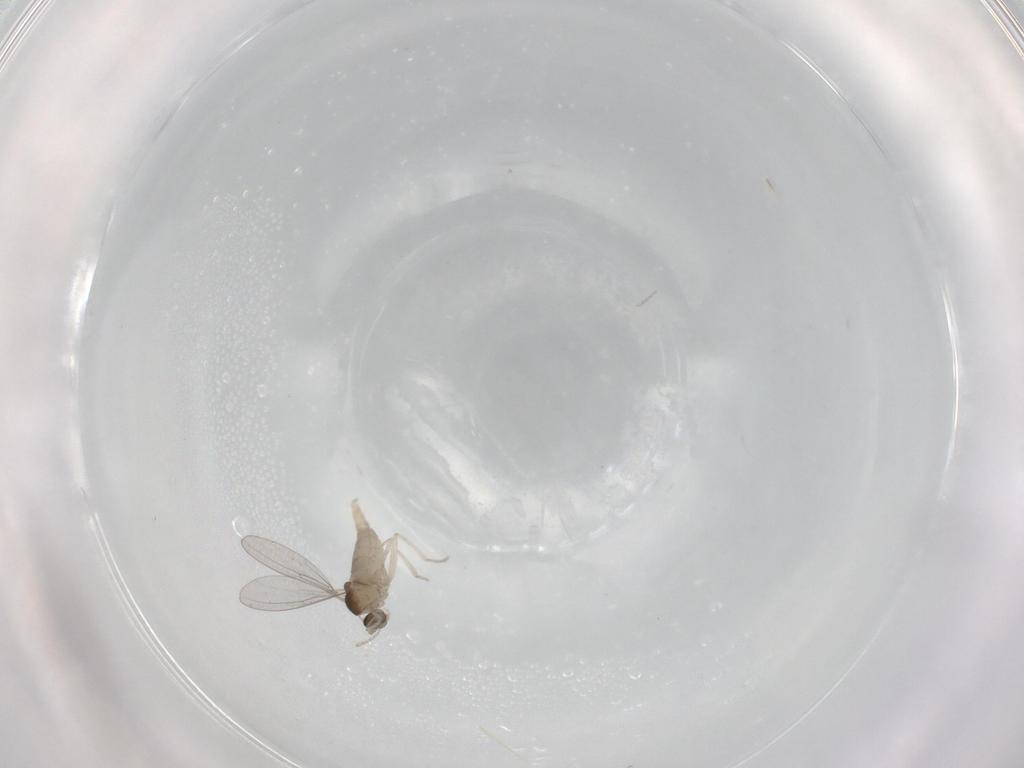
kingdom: Animalia
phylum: Arthropoda
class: Insecta
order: Diptera
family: Cecidomyiidae
